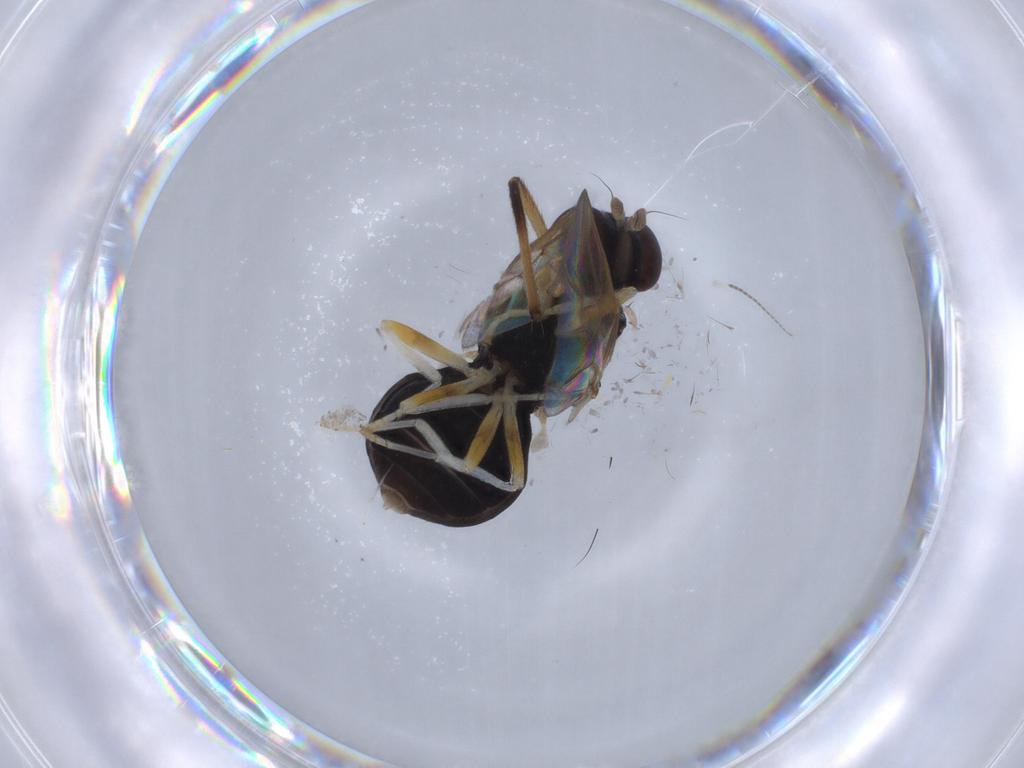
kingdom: Animalia
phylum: Arthropoda
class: Insecta
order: Diptera
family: Stratiomyidae
